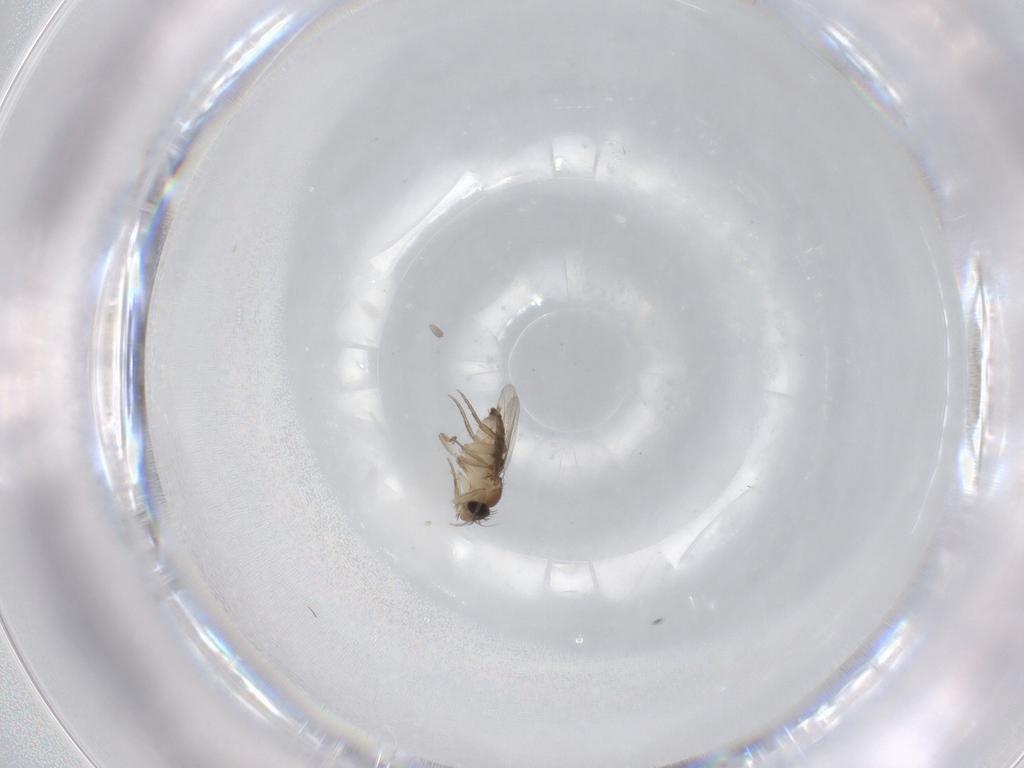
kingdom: Animalia
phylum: Arthropoda
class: Insecta
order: Diptera
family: Phoridae
